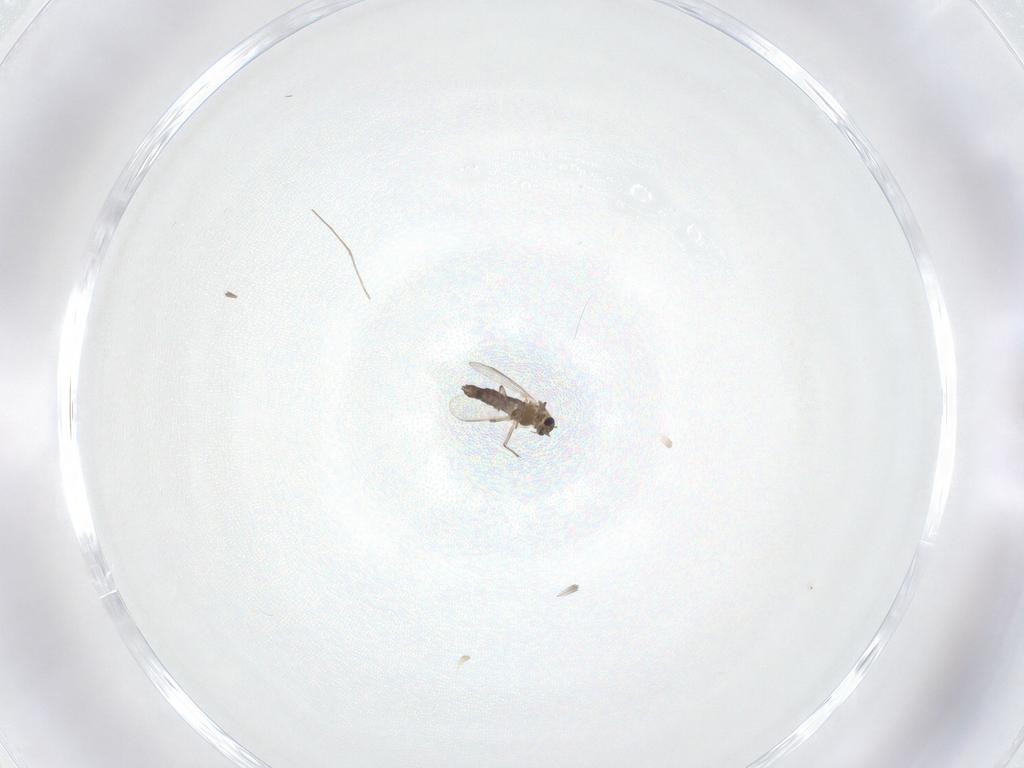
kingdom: Animalia
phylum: Arthropoda
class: Insecta
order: Diptera
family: Chironomidae
